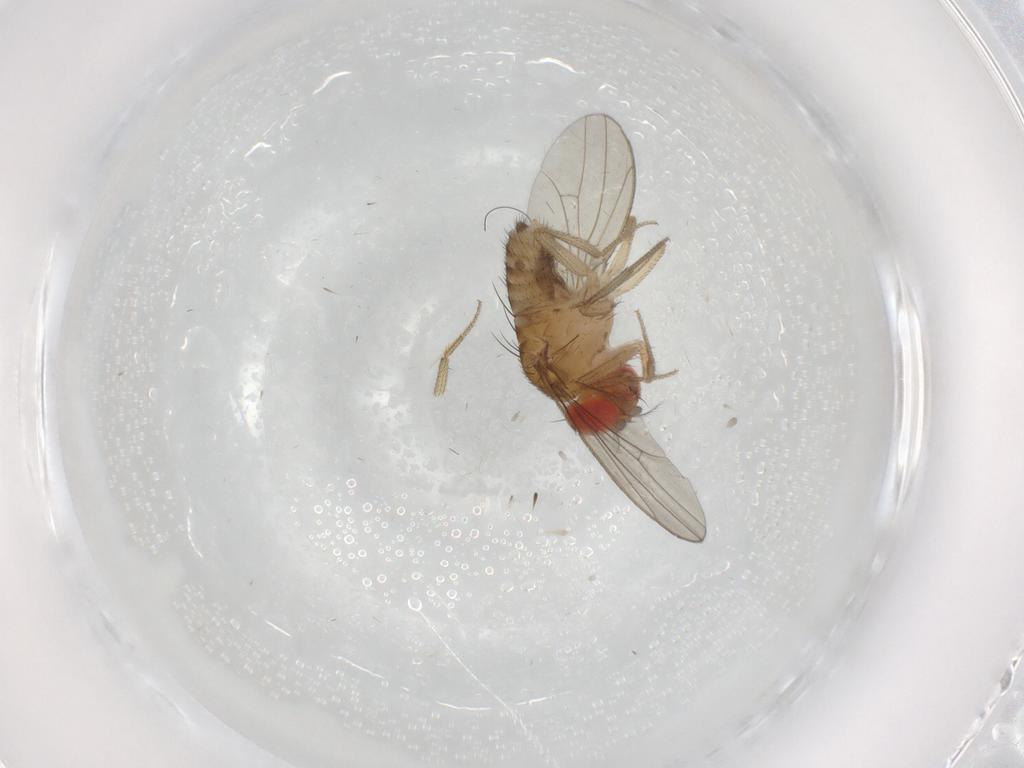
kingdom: Animalia
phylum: Arthropoda
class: Insecta
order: Diptera
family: Drosophilidae
